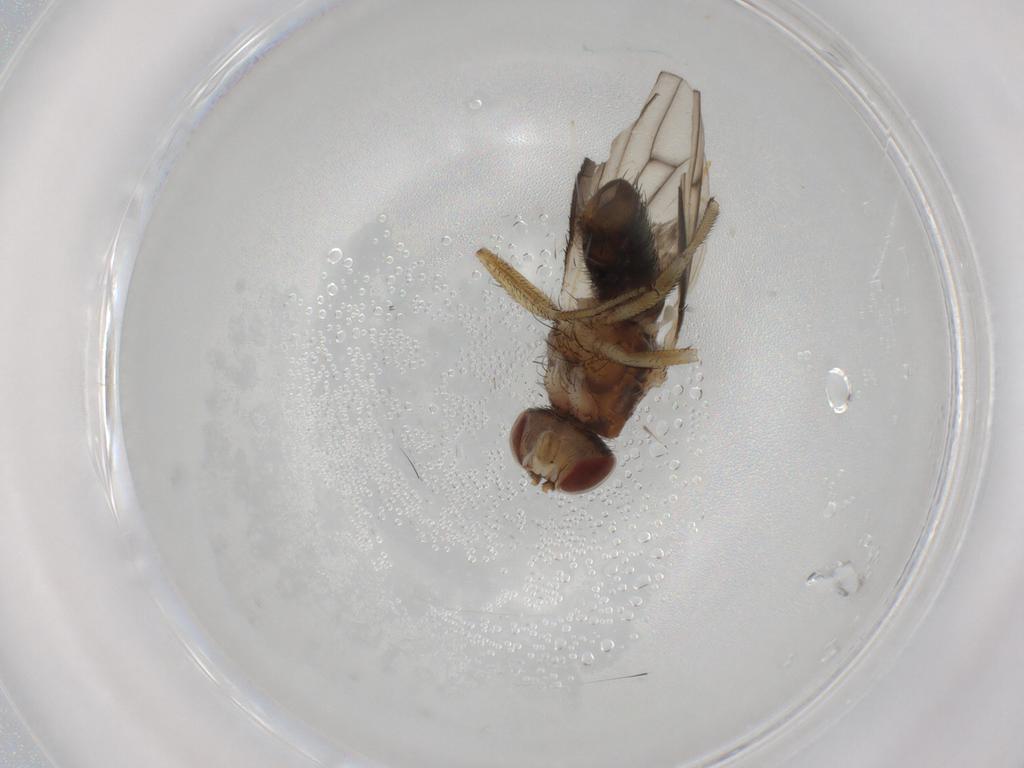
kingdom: Animalia
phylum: Arthropoda
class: Insecta
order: Diptera
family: Heleomyzidae
